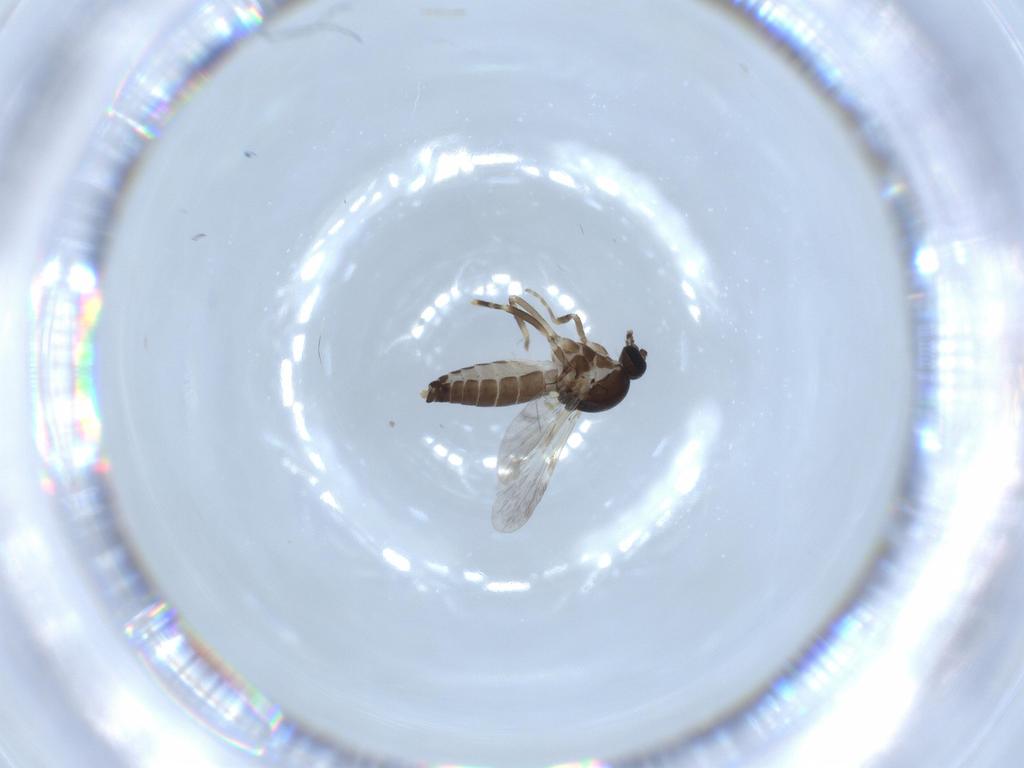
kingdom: Animalia
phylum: Arthropoda
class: Insecta
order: Diptera
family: Ceratopogonidae
